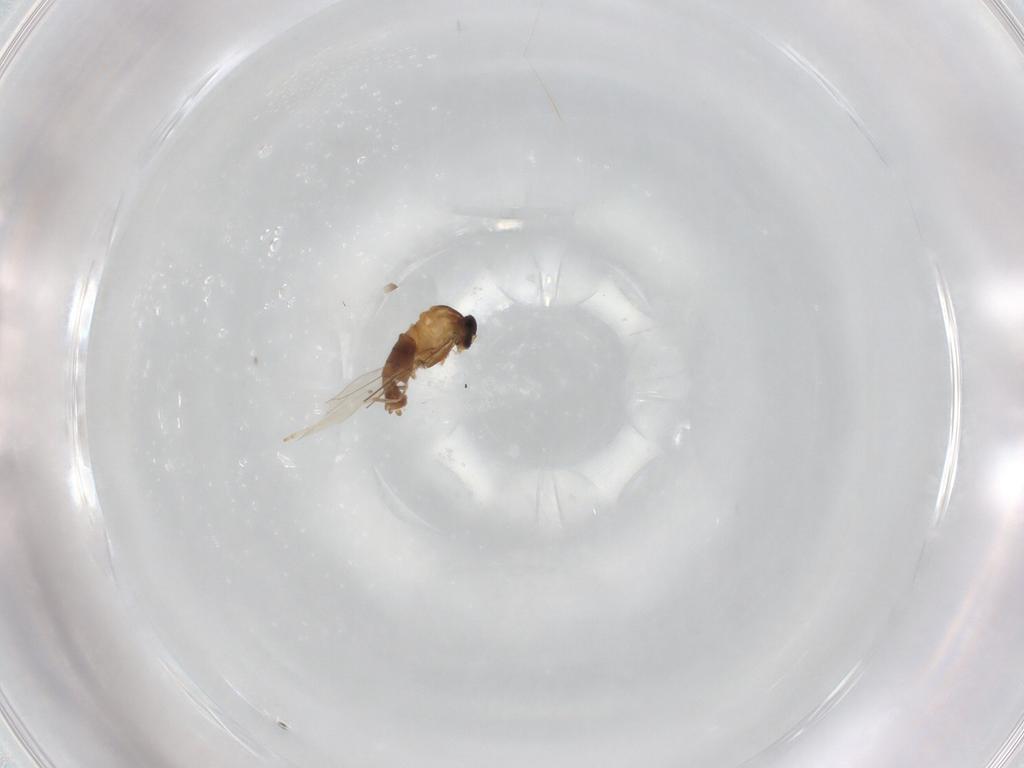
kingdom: Animalia
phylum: Arthropoda
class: Insecta
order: Diptera
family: Cecidomyiidae
